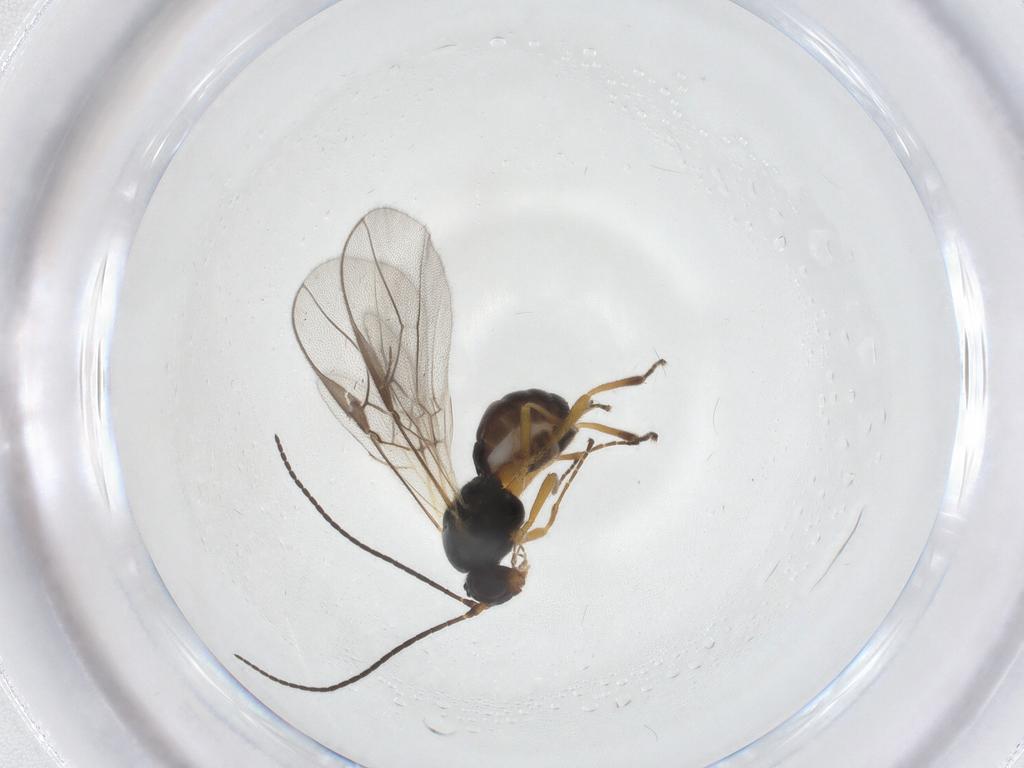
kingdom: Animalia
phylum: Arthropoda
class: Insecta
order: Hymenoptera
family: Braconidae
